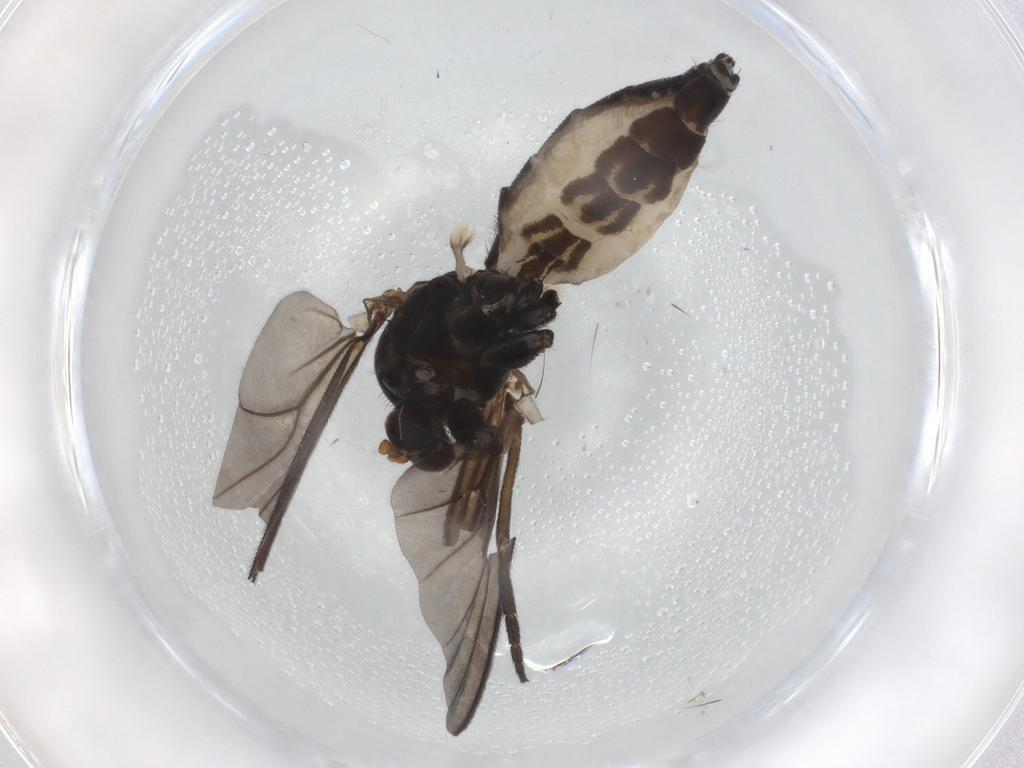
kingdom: Animalia
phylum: Arthropoda
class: Insecta
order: Diptera
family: Mycetophilidae
